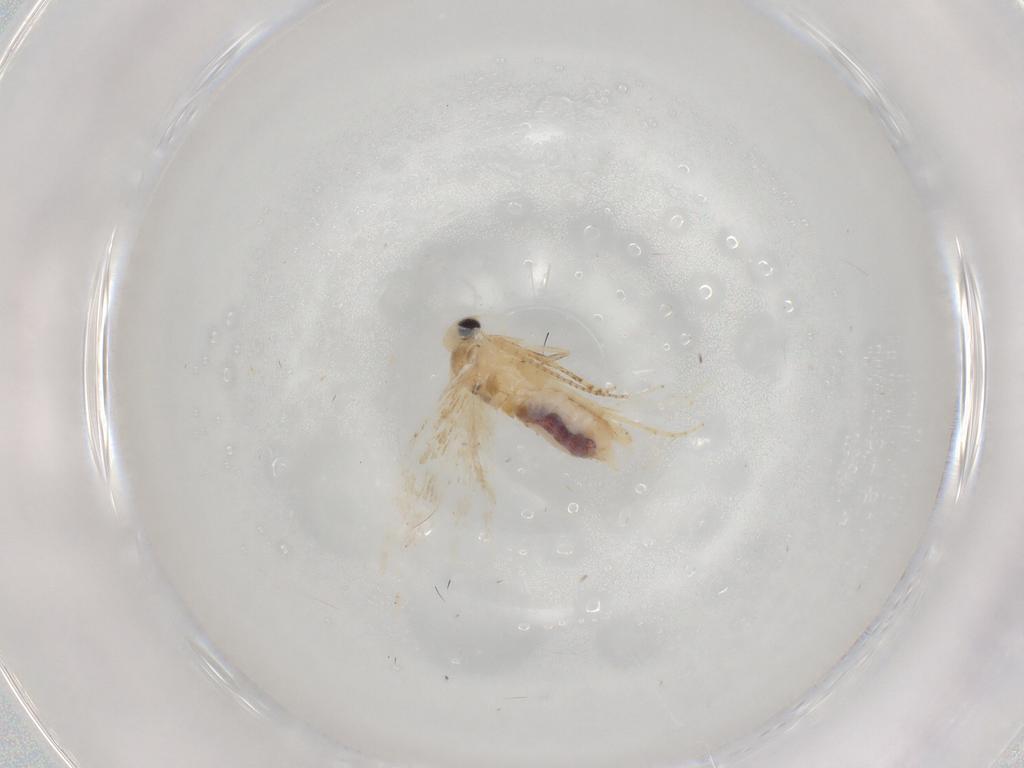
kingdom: Animalia
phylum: Arthropoda
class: Insecta
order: Lepidoptera
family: Bucculatricidae
